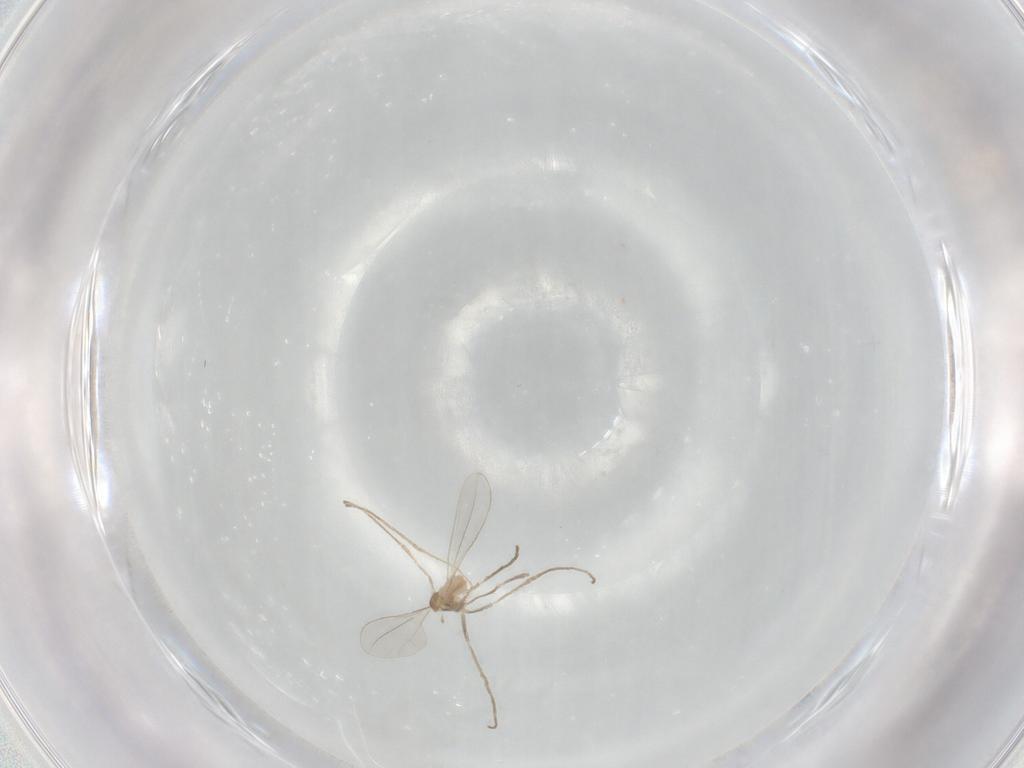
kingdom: Animalia
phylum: Arthropoda
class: Insecta
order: Diptera
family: Cecidomyiidae
